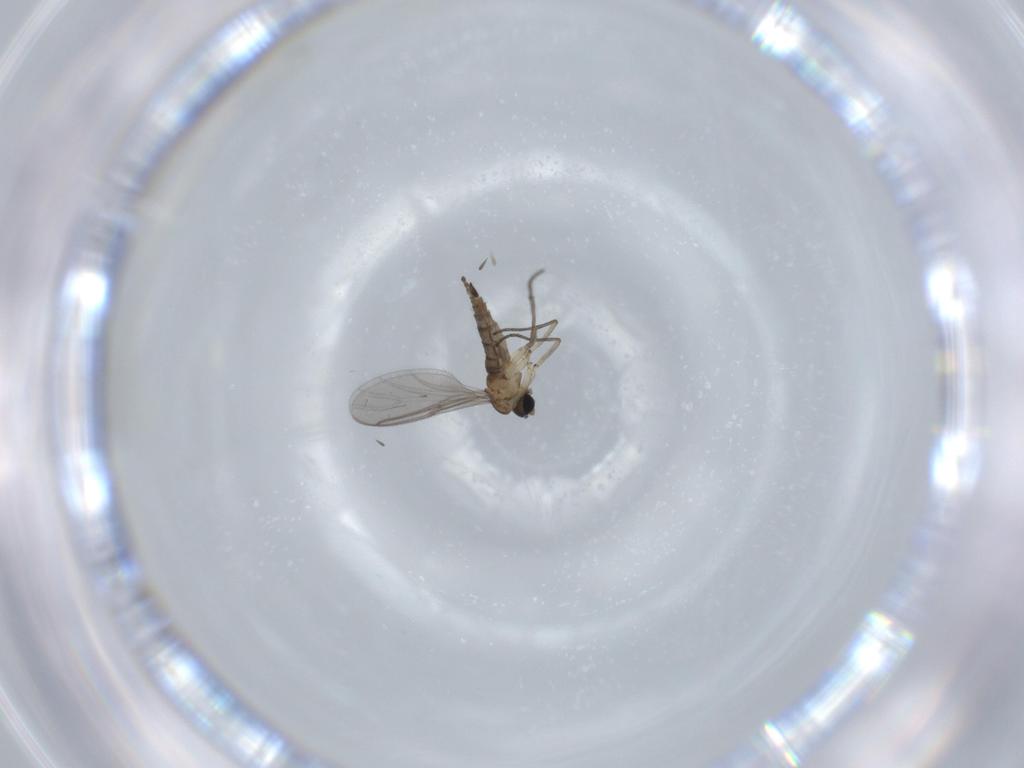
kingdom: Animalia
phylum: Arthropoda
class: Insecta
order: Diptera
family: Sciaridae
